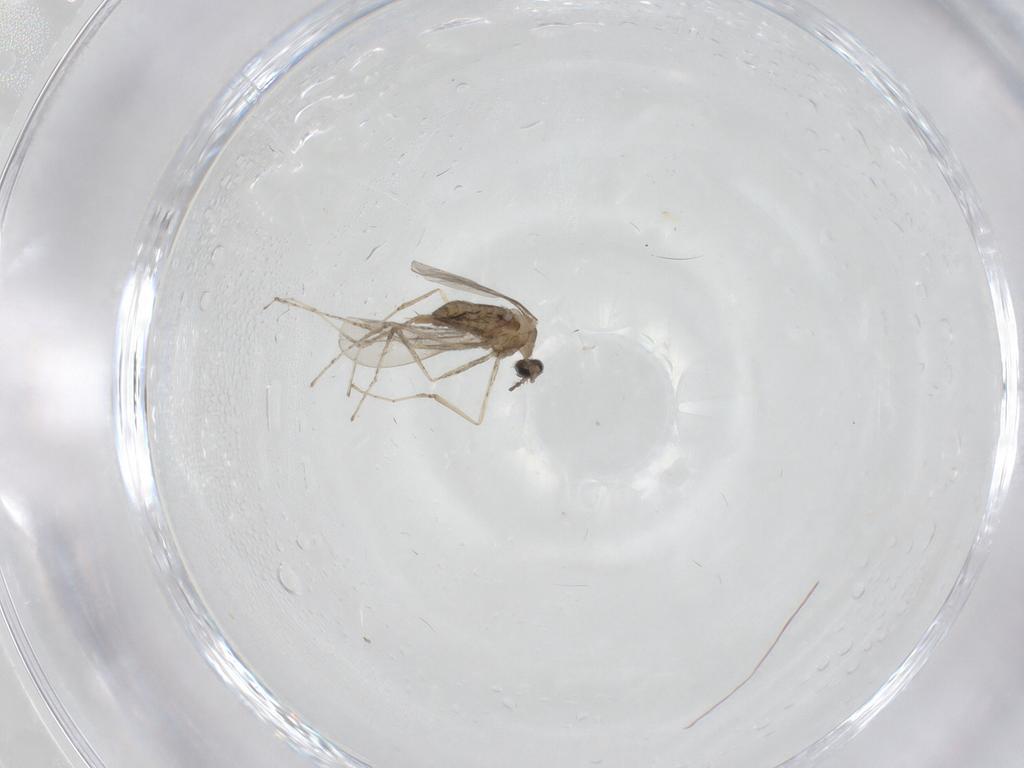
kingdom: Animalia
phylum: Arthropoda
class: Insecta
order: Diptera
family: Cecidomyiidae
